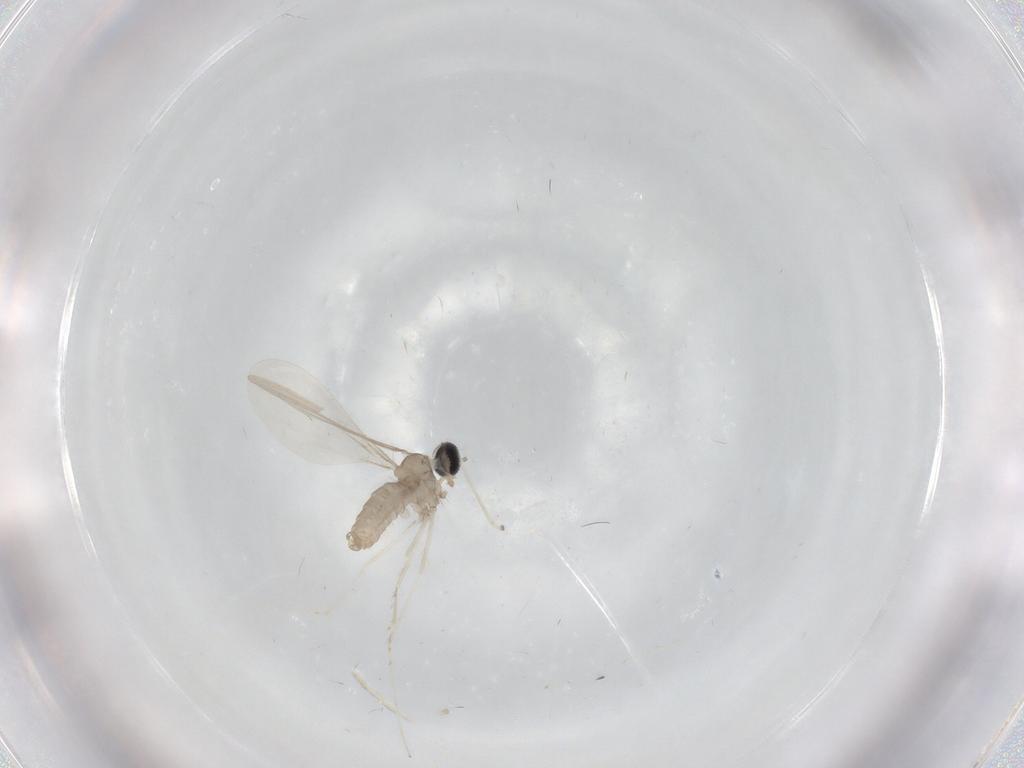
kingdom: Animalia
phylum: Arthropoda
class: Insecta
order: Diptera
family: Cecidomyiidae
